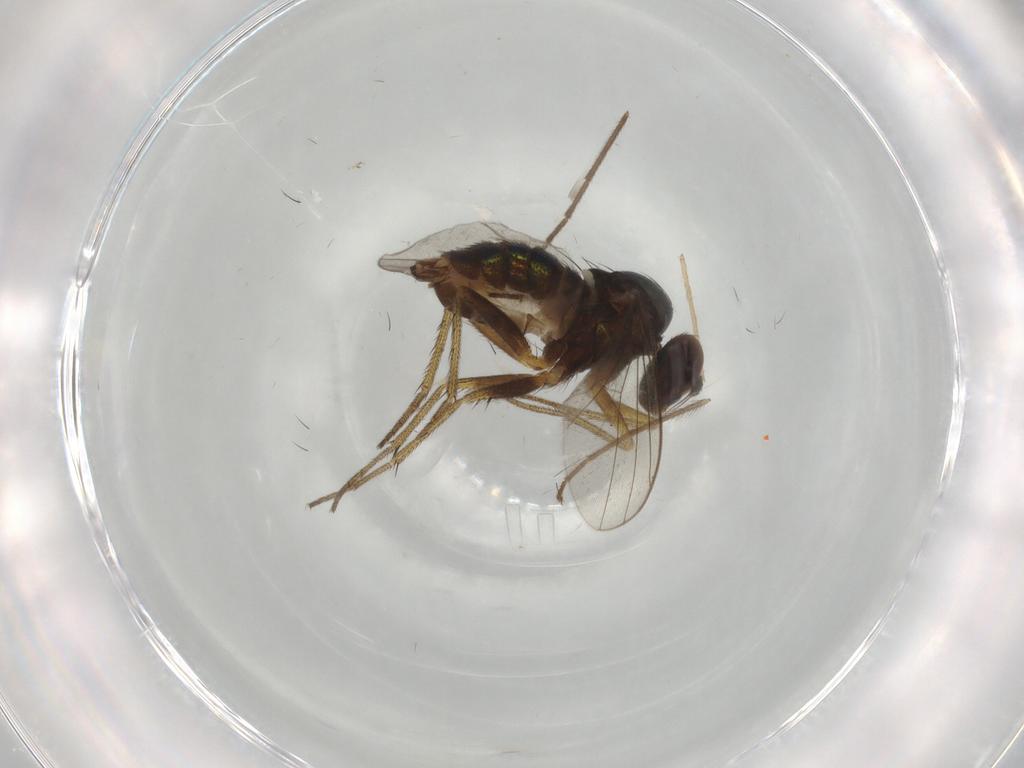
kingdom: Animalia
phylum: Arthropoda
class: Insecta
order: Diptera
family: Chironomidae
